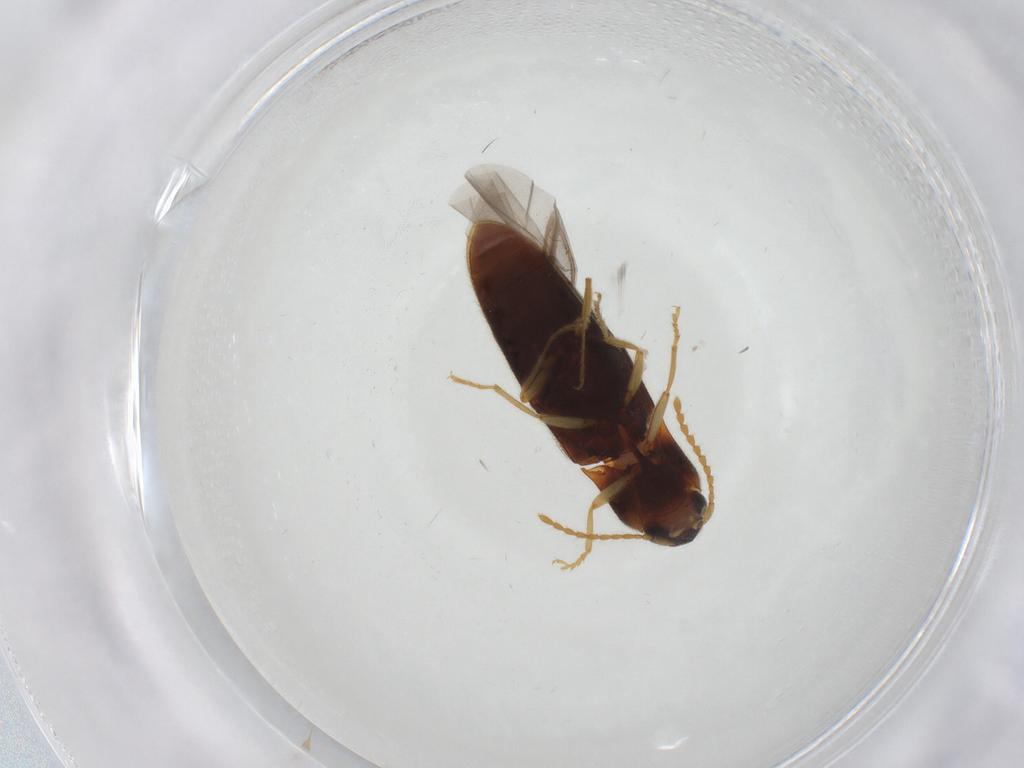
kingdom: Animalia
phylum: Arthropoda
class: Insecta
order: Coleoptera
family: Elateridae
